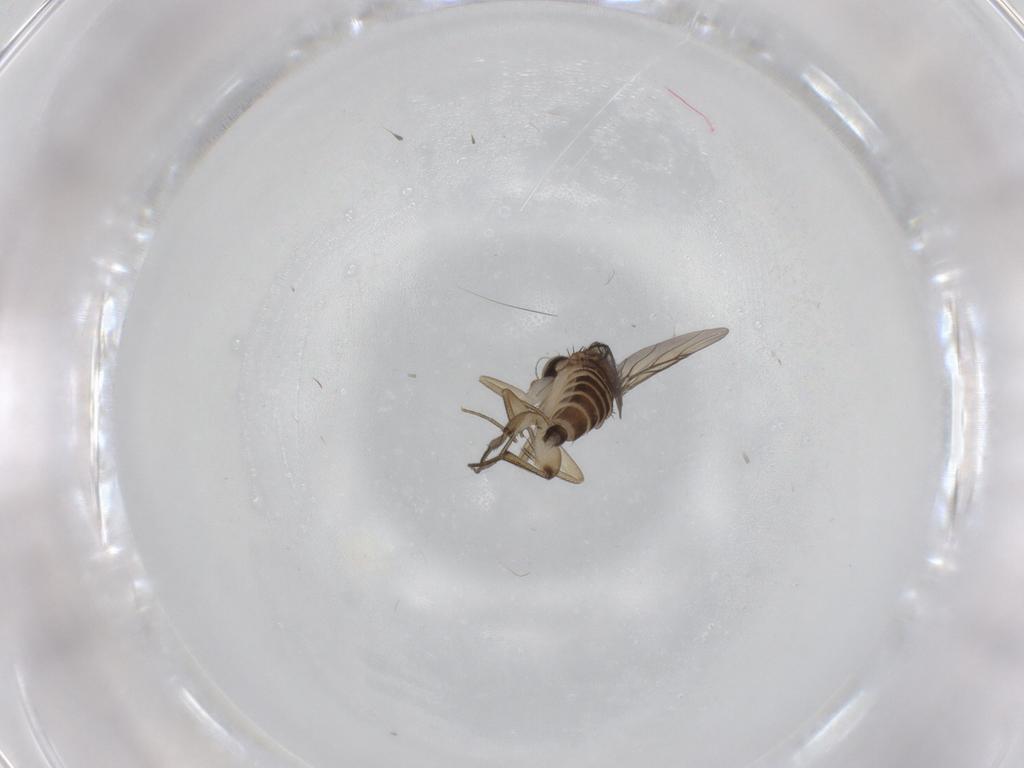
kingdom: Animalia
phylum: Arthropoda
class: Insecta
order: Diptera
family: Phoridae
